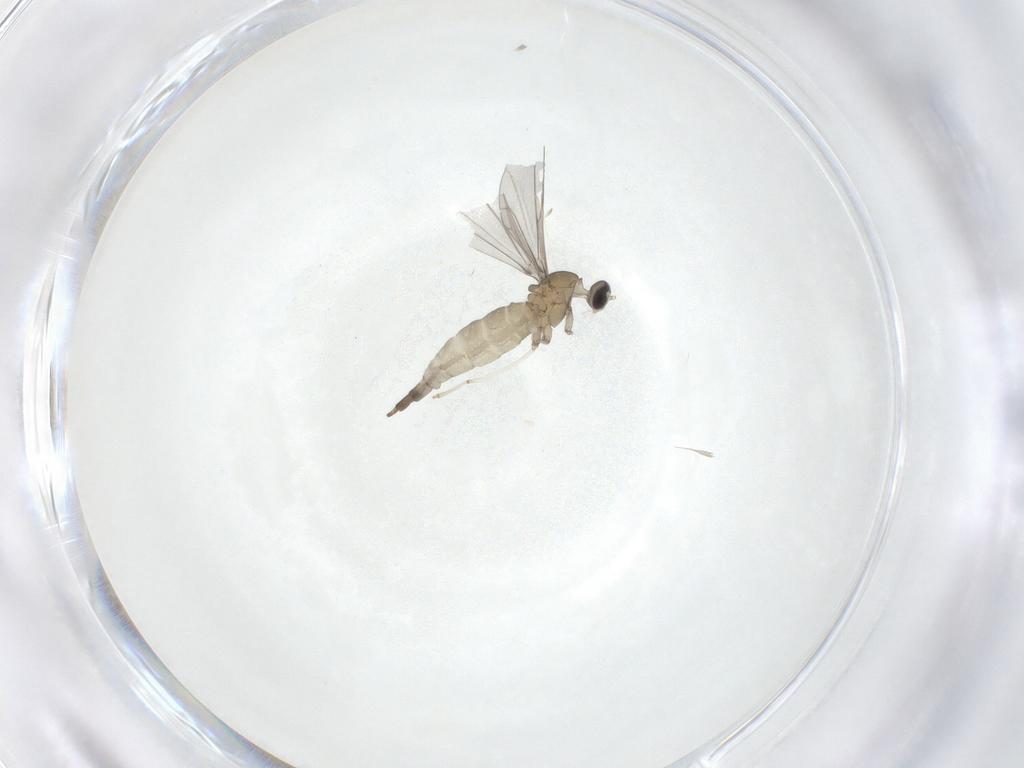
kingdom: Animalia
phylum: Arthropoda
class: Insecta
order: Diptera
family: Cecidomyiidae
